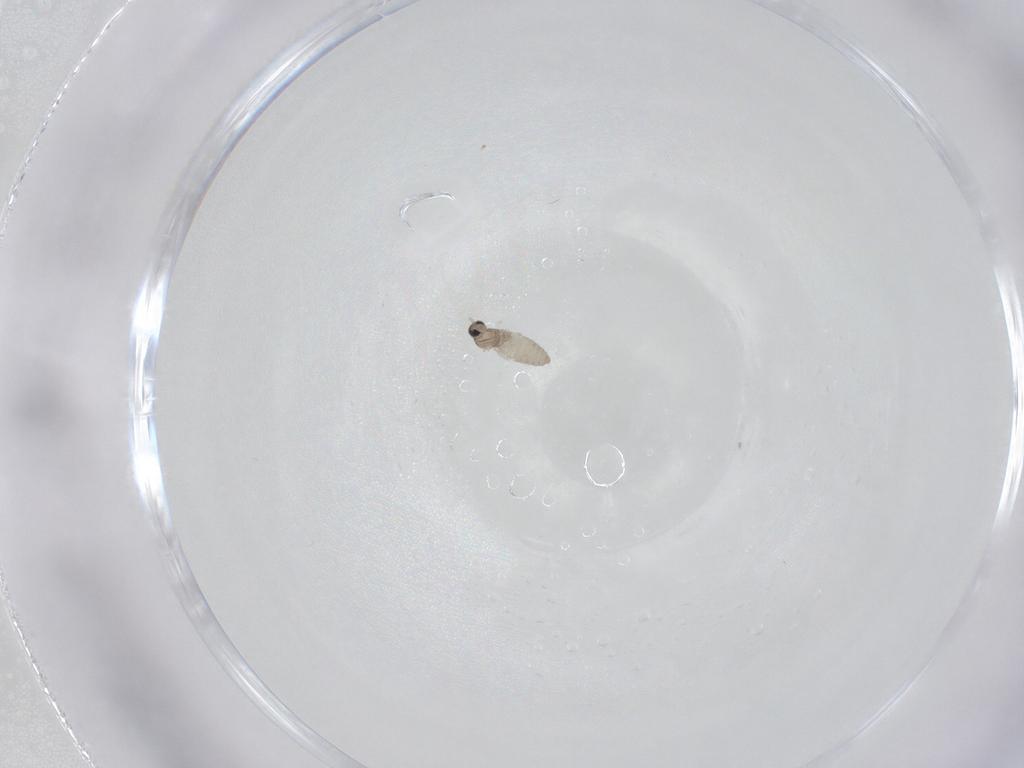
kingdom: Animalia
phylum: Arthropoda
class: Insecta
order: Diptera
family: Cecidomyiidae
